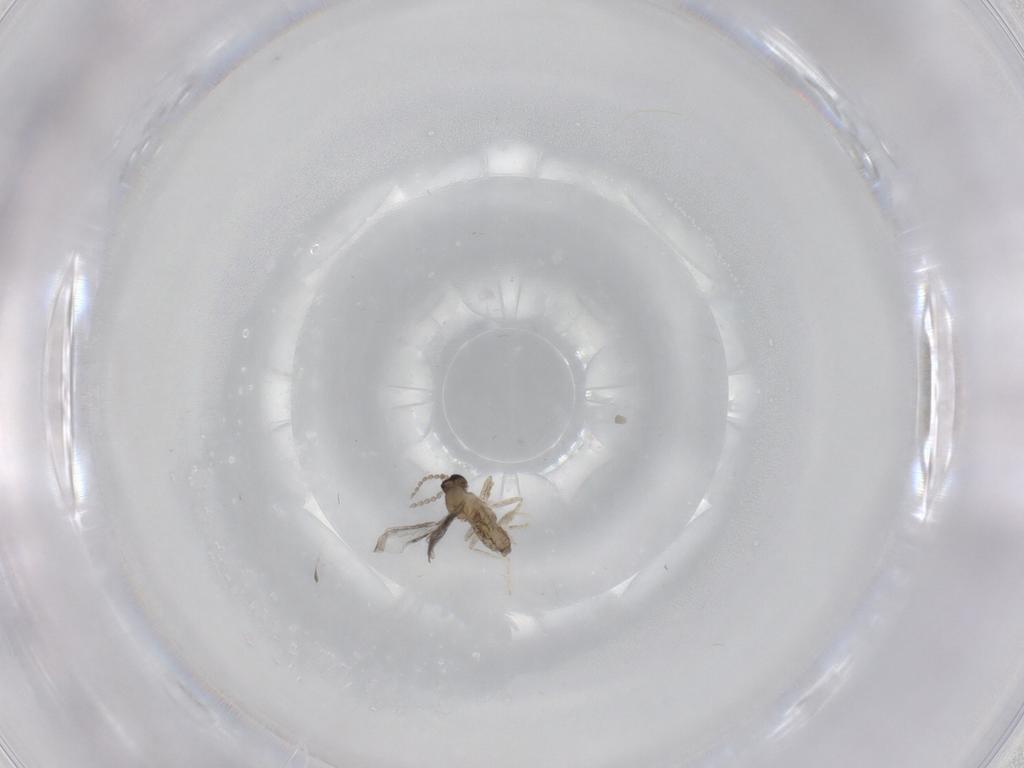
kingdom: Animalia
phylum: Arthropoda
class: Insecta
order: Diptera
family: Cecidomyiidae
